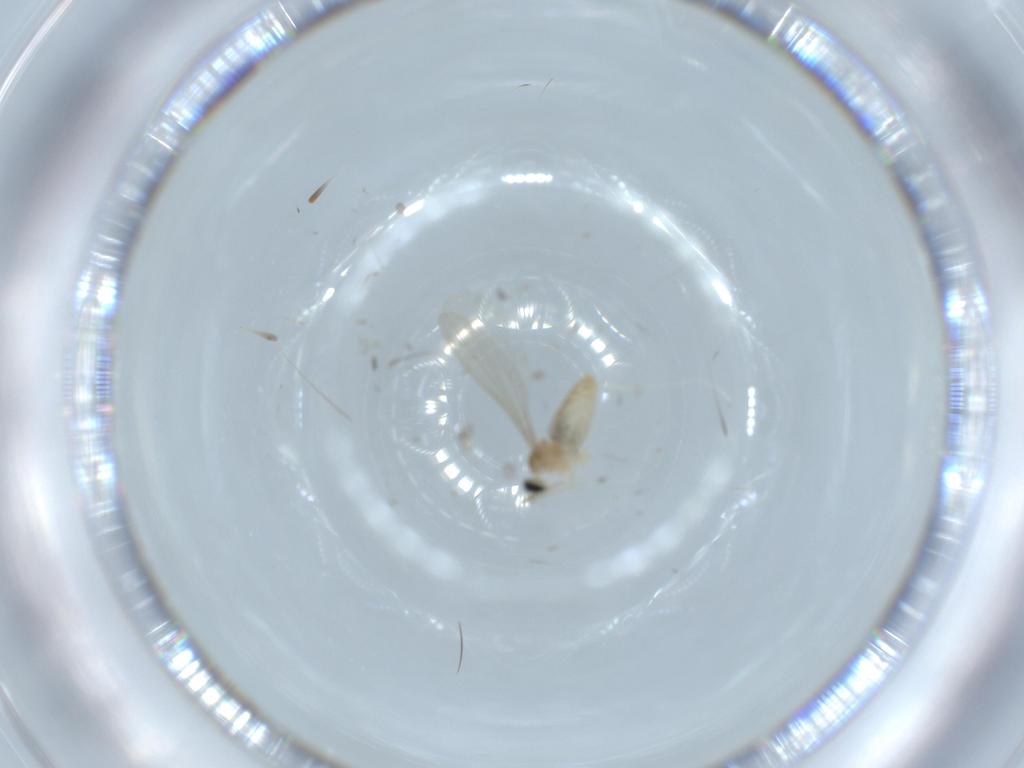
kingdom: Animalia
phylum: Arthropoda
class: Insecta
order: Diptera
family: Cecidomyiidae
